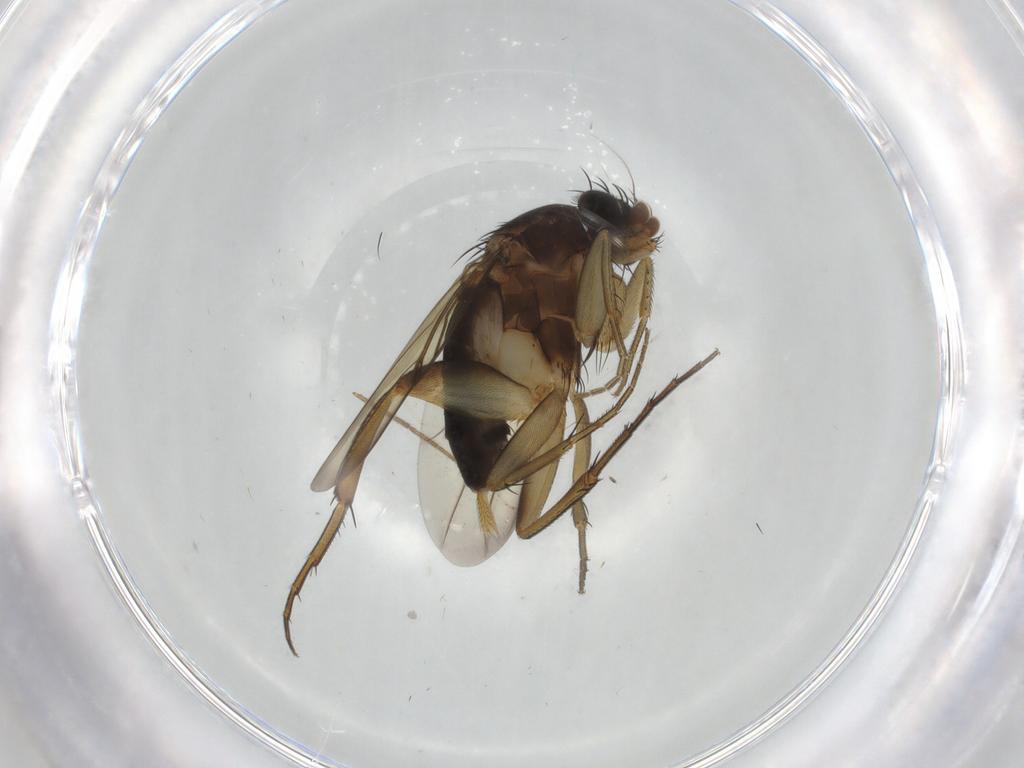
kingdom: Animalia
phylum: Arthropoda
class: Insecta
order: Diptera
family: Phoridae
